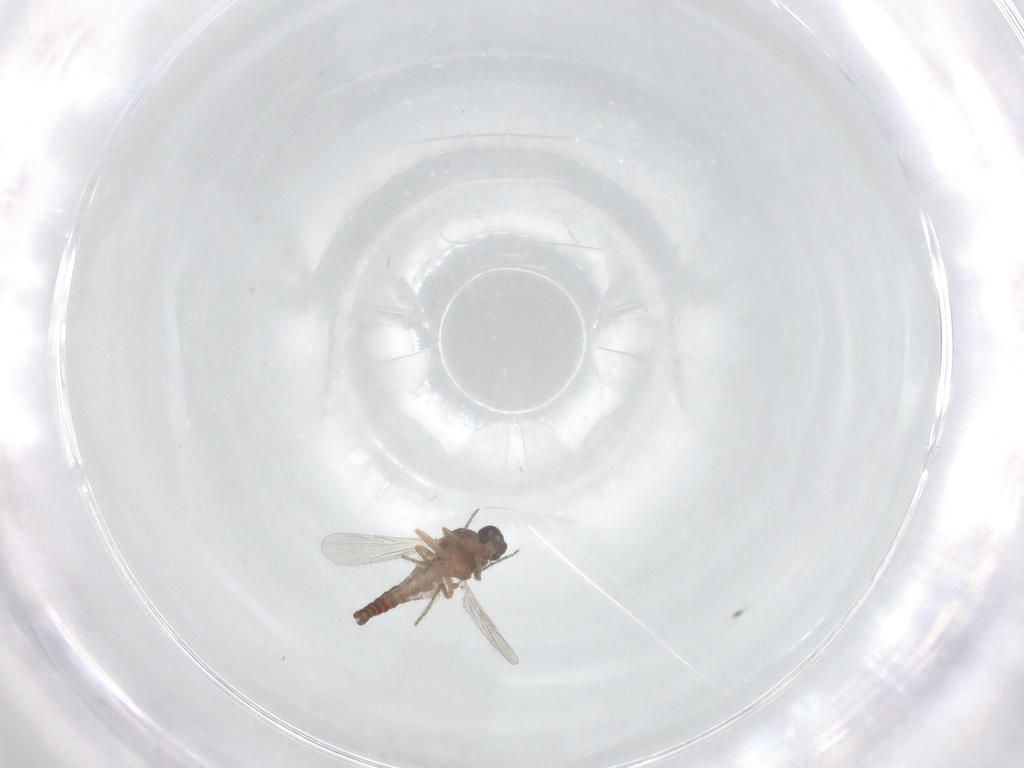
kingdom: Animalia
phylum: Arthropoda
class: Insecta
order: Diptera
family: Ceratopogonidae
